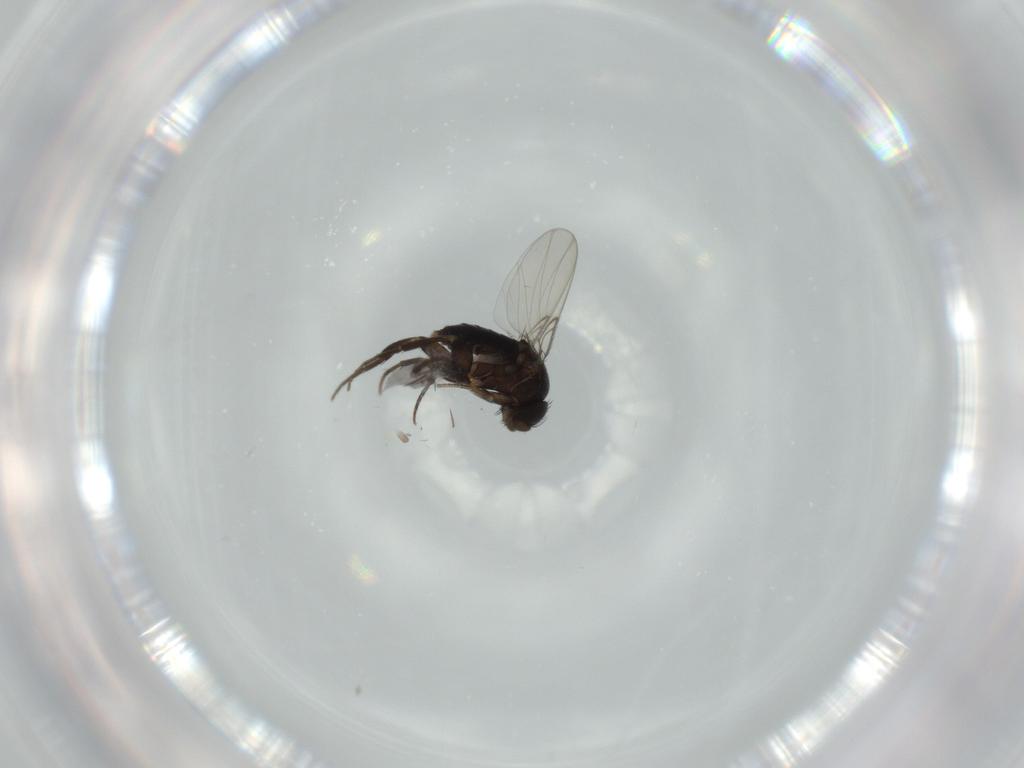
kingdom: Animalia
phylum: Arthropoda
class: Insecta
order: Diptera
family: Phoridae
